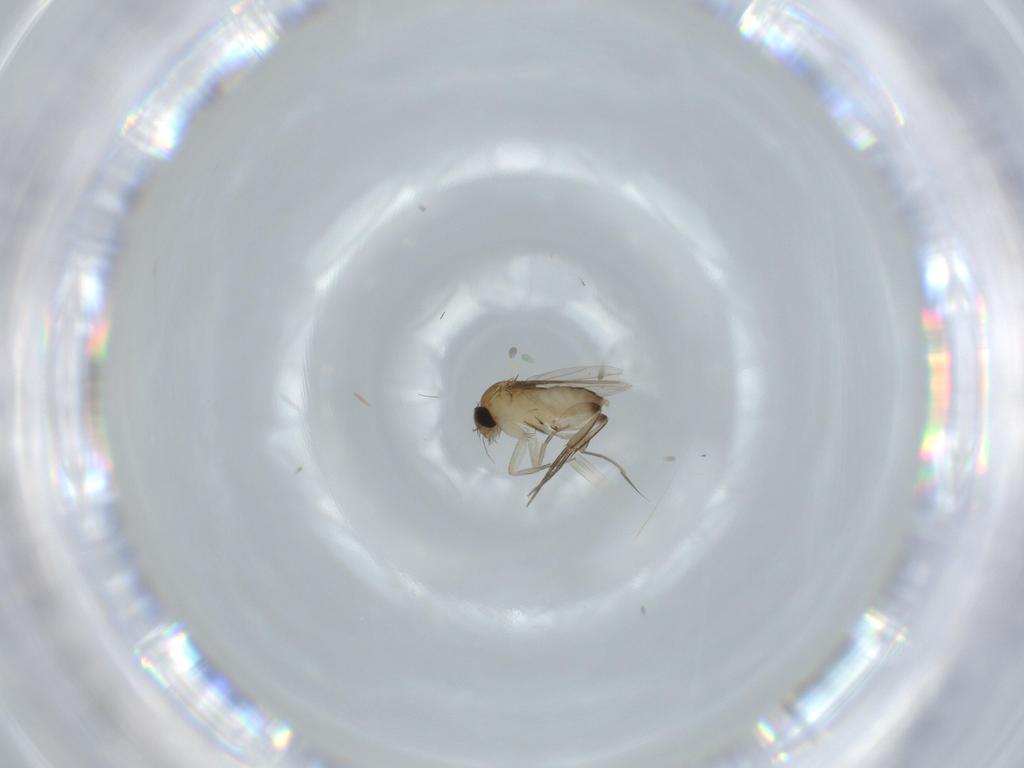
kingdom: Animalia
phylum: Arthropoda
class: Insecta
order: Diptera
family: Phoridae
